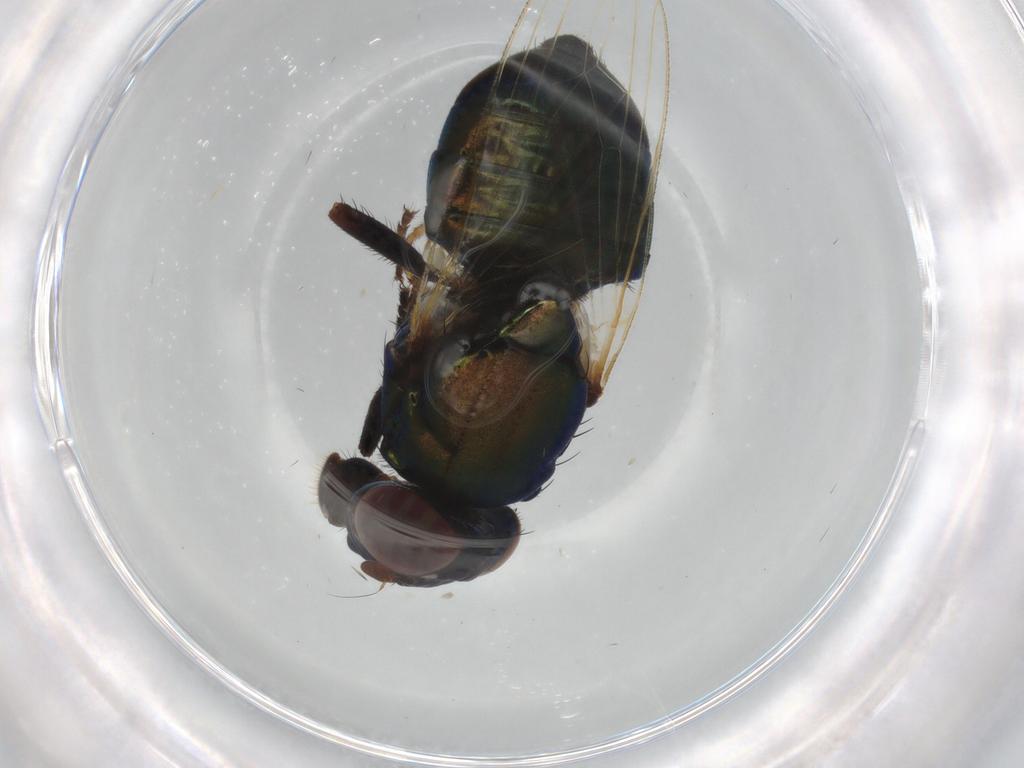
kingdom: Animalia
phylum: Arthropoda
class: Insecta
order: Diptera
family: Ulidiidae
